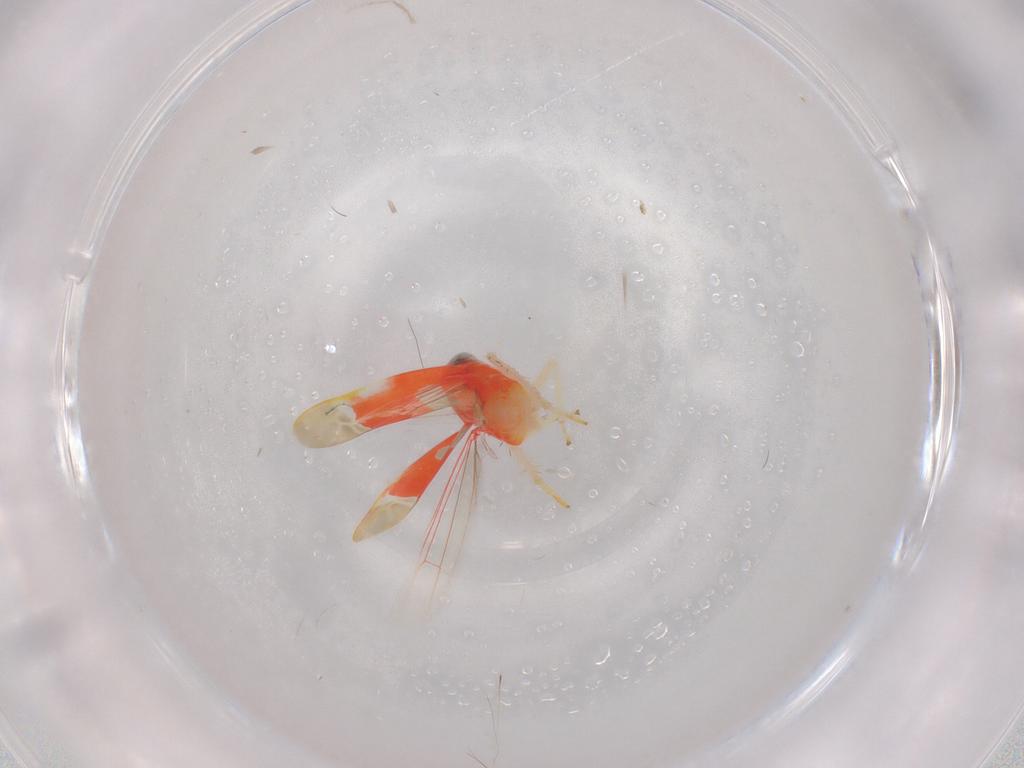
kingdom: Animalia
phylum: Arthropoda
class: Insecta
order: Hemiptera
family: Cicadellidae
